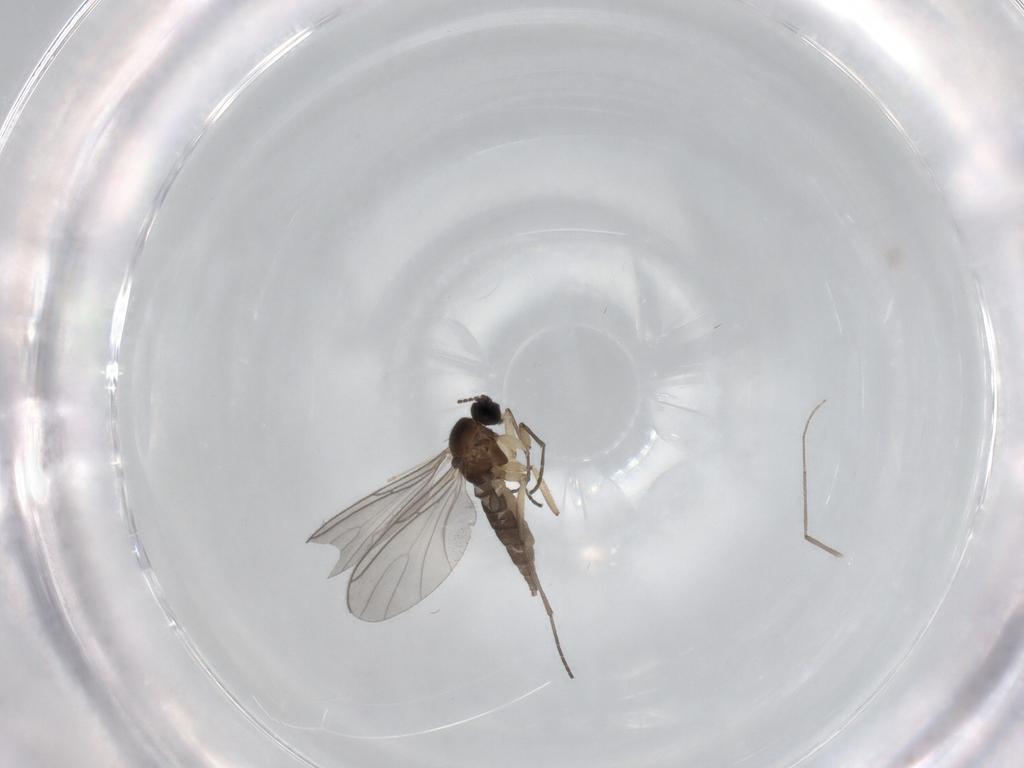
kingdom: Animalia
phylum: Arthropoda
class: Insecta
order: Diptera
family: Sciaridae
